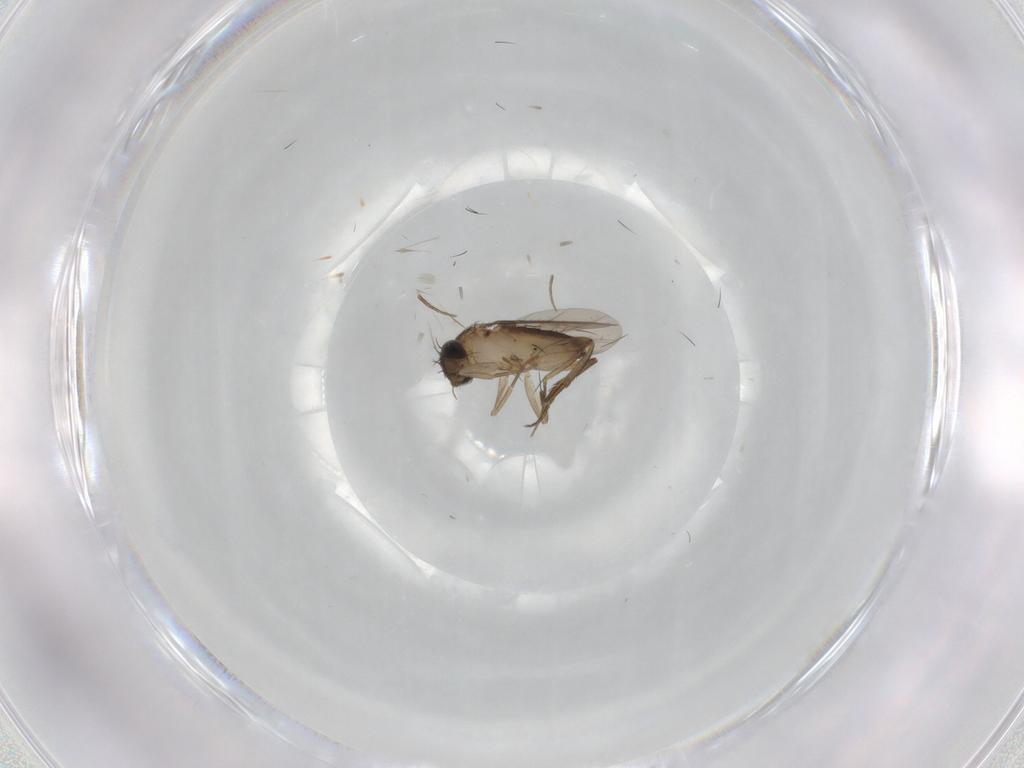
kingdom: Animalia
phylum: Arthropoda
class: Insecta
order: Diptera
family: Phoridae
